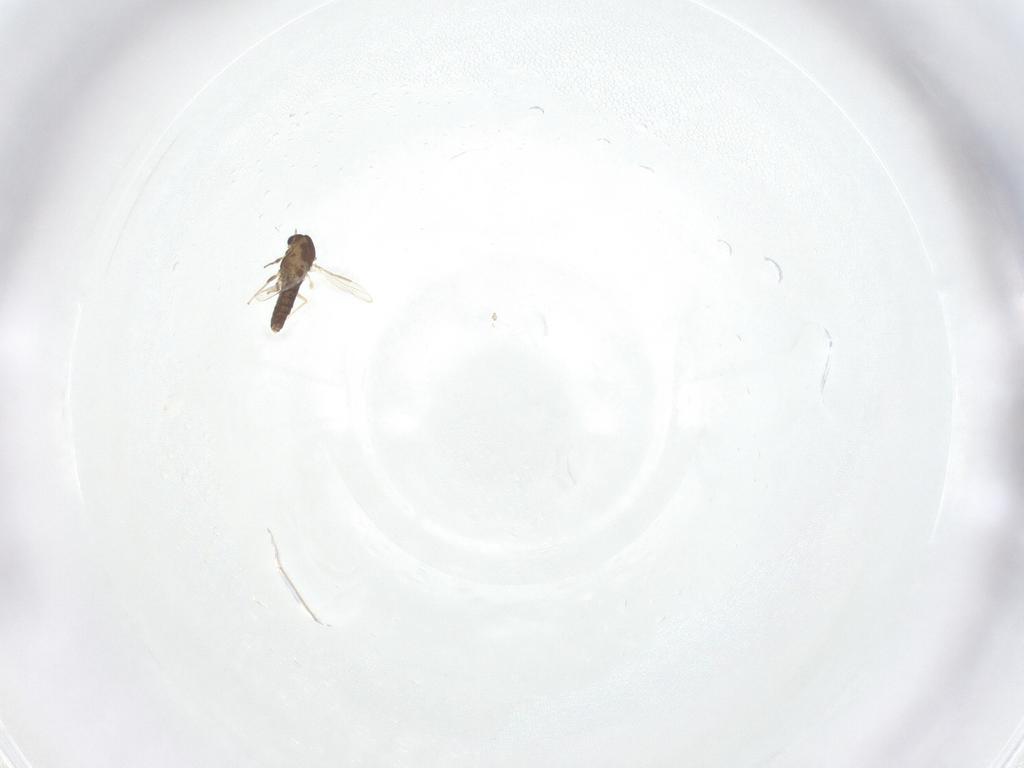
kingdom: Animalia
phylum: Arthropoda
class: Insecta
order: Diptera
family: Chironomidae
